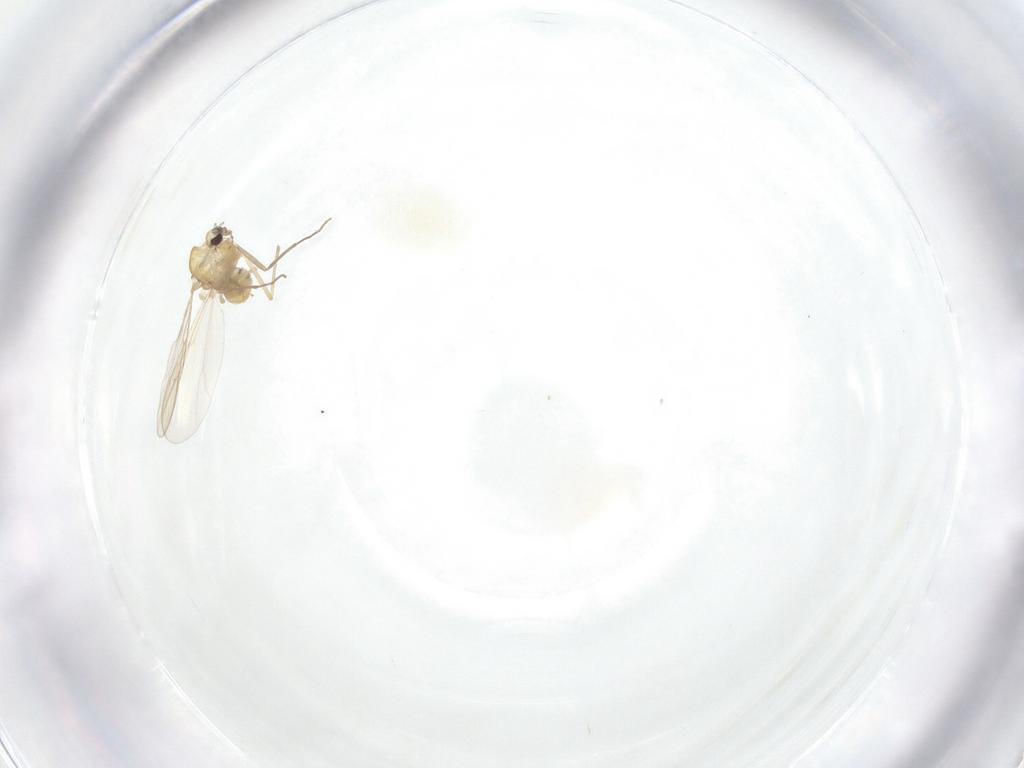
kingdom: Animalia
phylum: Arthropoda
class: Insecta
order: Diptera
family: Chironomidae
